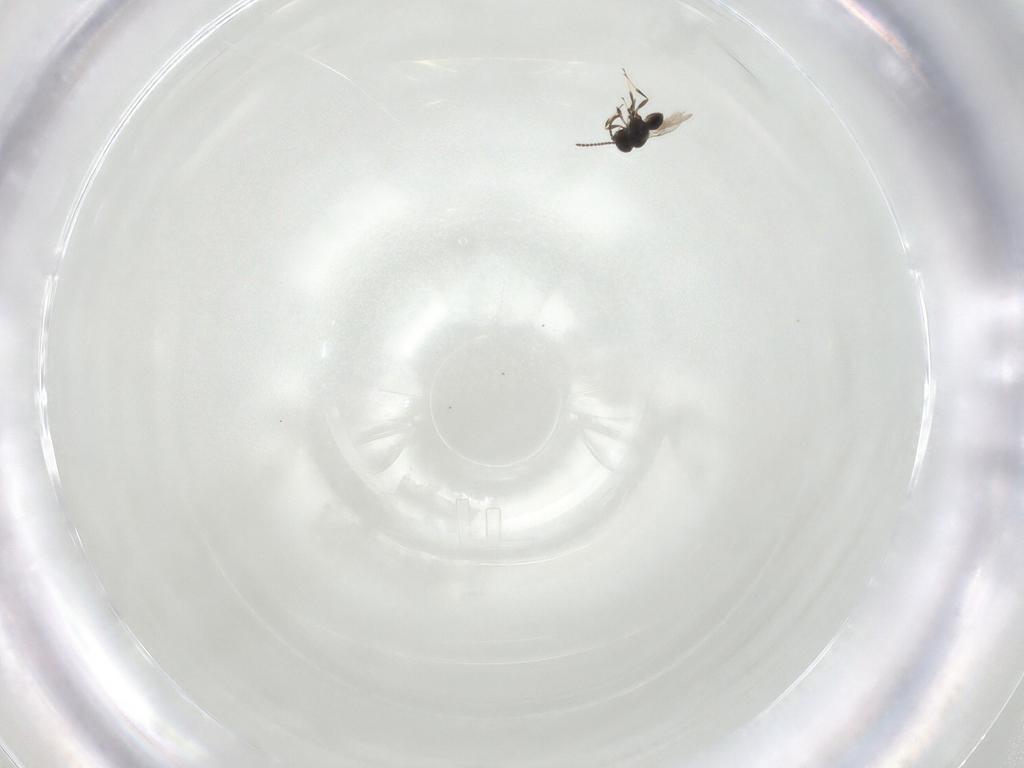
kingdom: Animalia
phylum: Arthropoda
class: Insecta
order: Hymenoptera
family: Scelionidae
